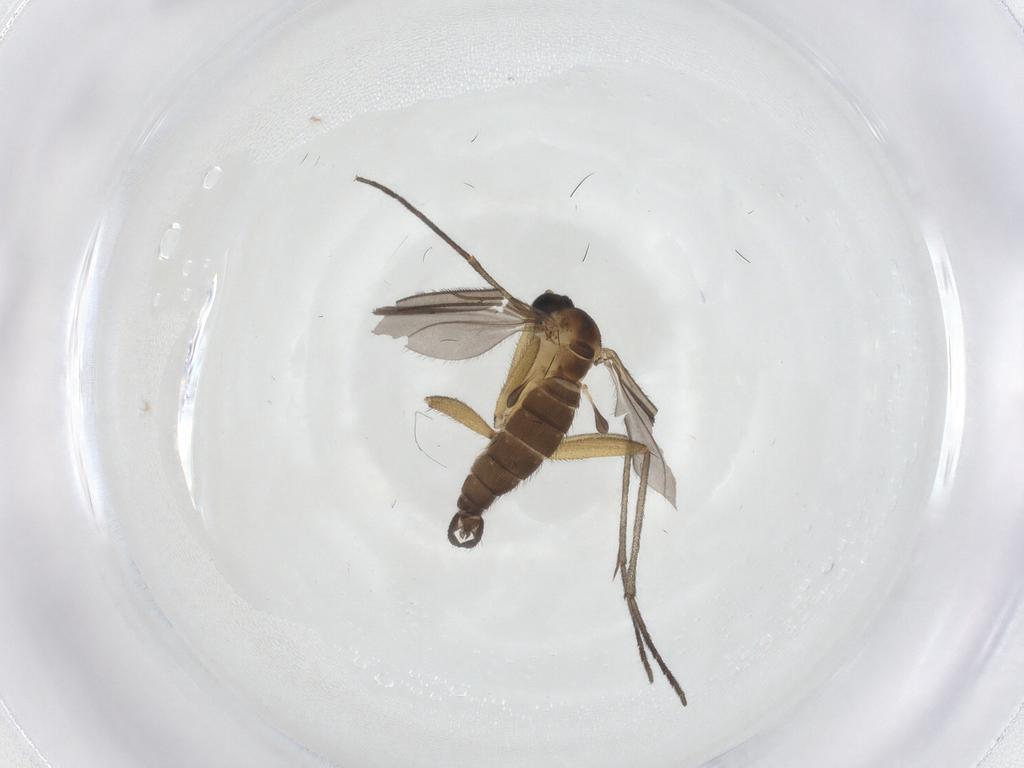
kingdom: Animalia
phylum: Arthropoda
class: Insecta
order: Diptera
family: Sciaridae
